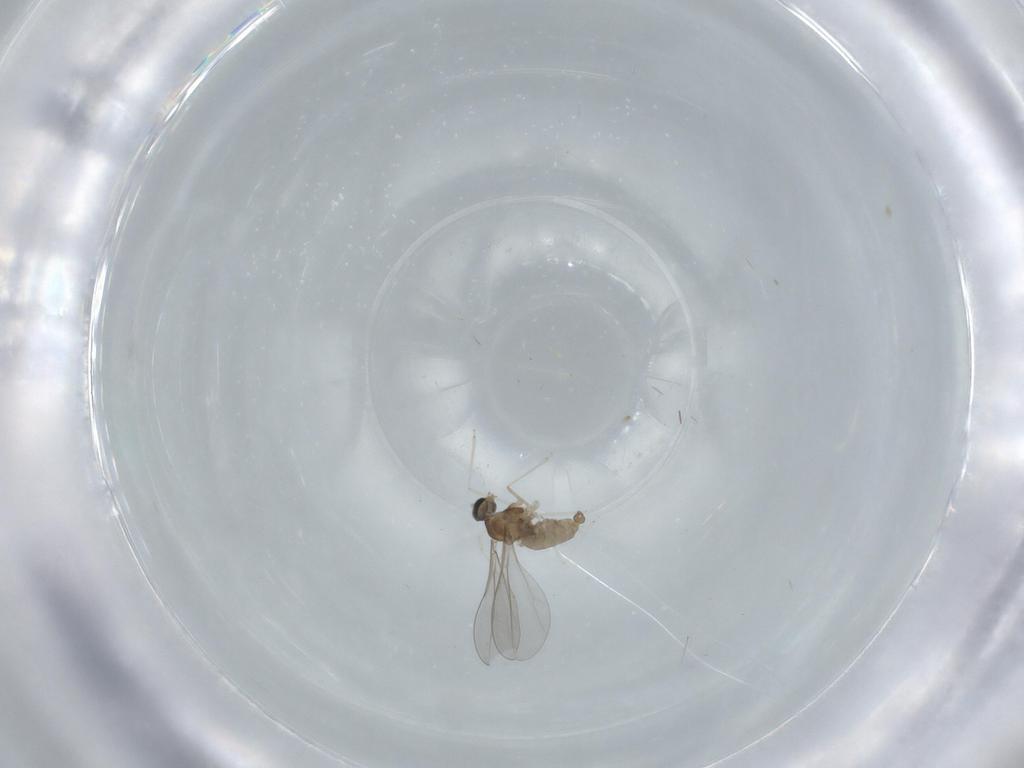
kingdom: Animalia
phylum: Arthropoda
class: Insecta
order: Diptera
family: Cecidomyiidae
